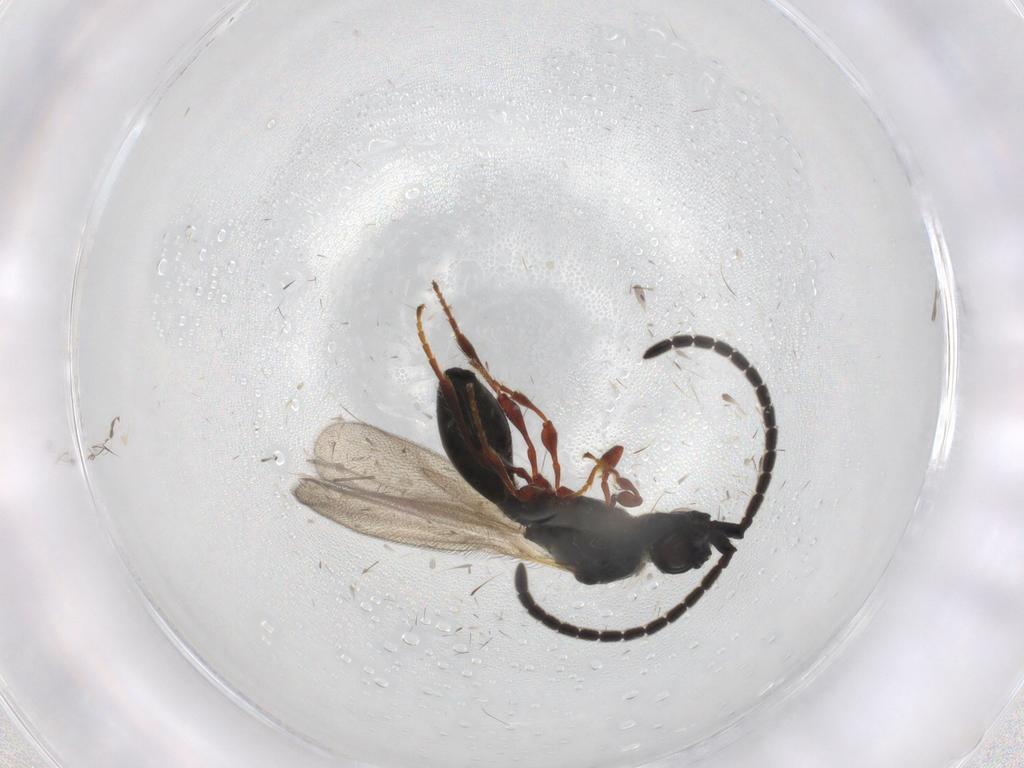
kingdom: Animalia
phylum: Arthropoda
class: Insecta
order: Hymenoptera
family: Diapriidae
